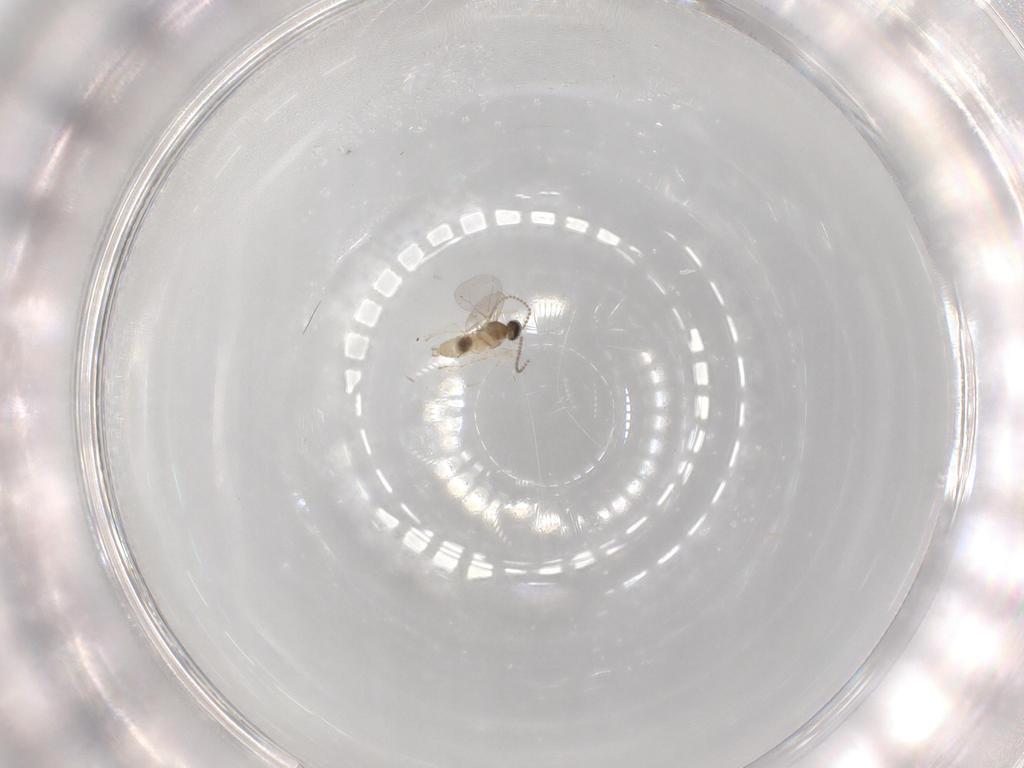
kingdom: Animalia
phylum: Arthropoda
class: Insecta
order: Diptera
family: Cecidomyiidae
